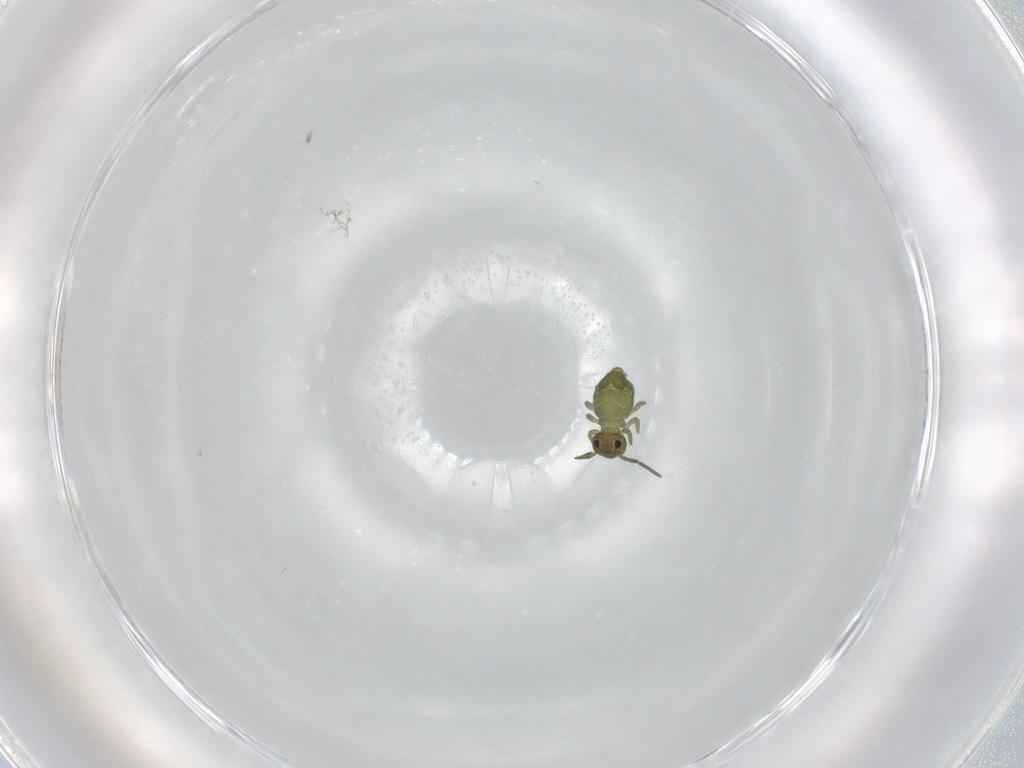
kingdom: Animalia
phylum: Arthropoda
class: Collembola
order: Symphypleona
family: Sminthuridae
